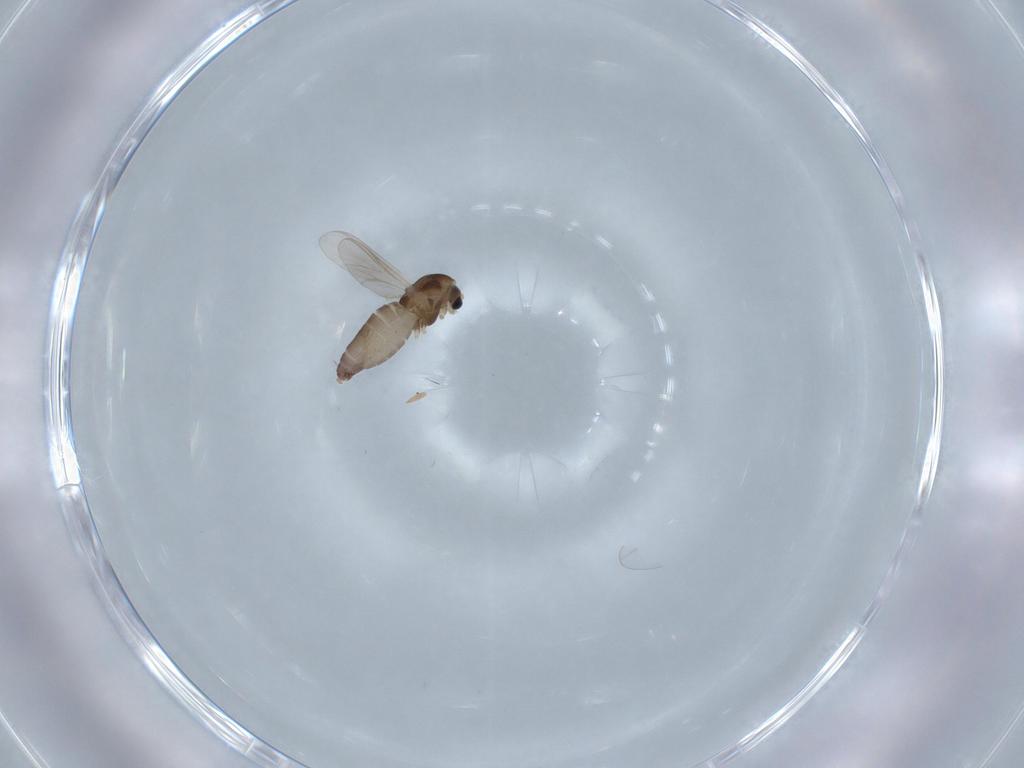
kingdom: Animalia
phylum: Arthropoda
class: Insecta
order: Diptera
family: Chironomidae
